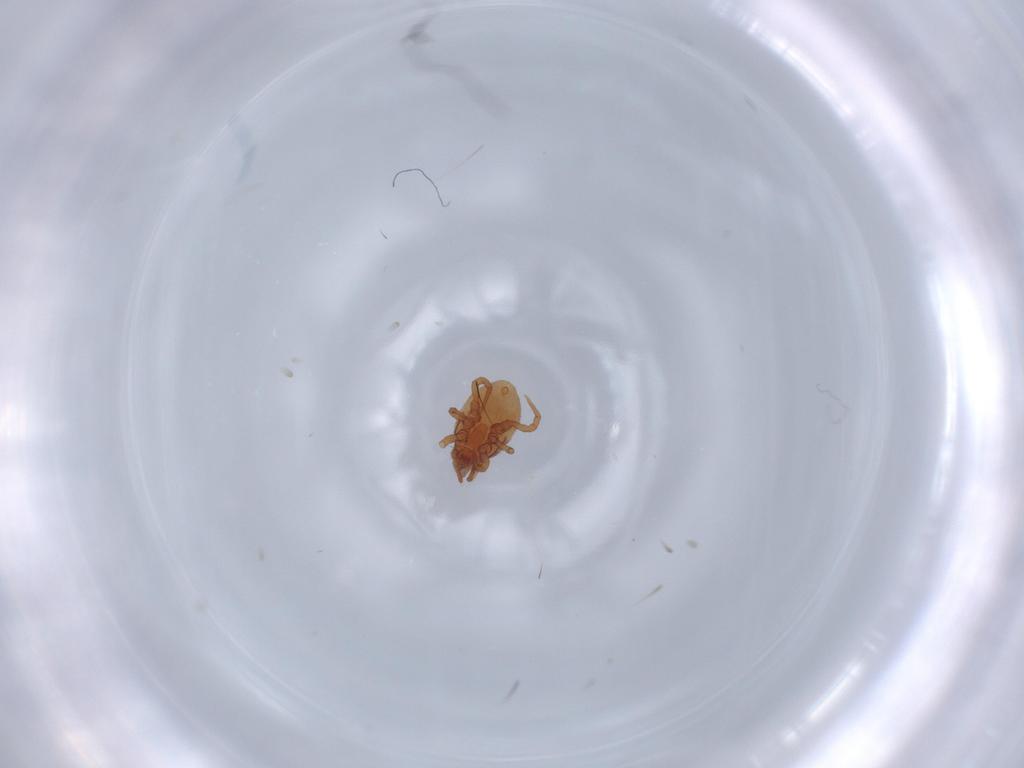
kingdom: Animalia
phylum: Arthropoda
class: Arachnida
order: Mesostigmata
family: Parasitidae
